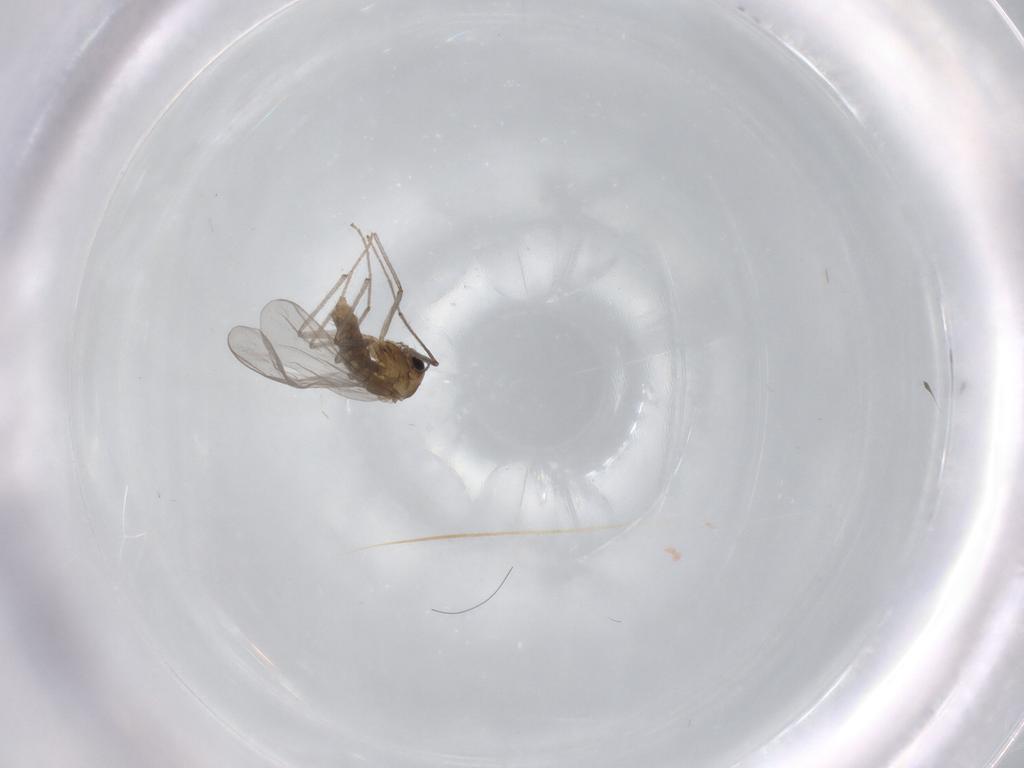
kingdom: Animalia
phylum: Arthropoda
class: Insecta
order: Diptera
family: Chironomidae
